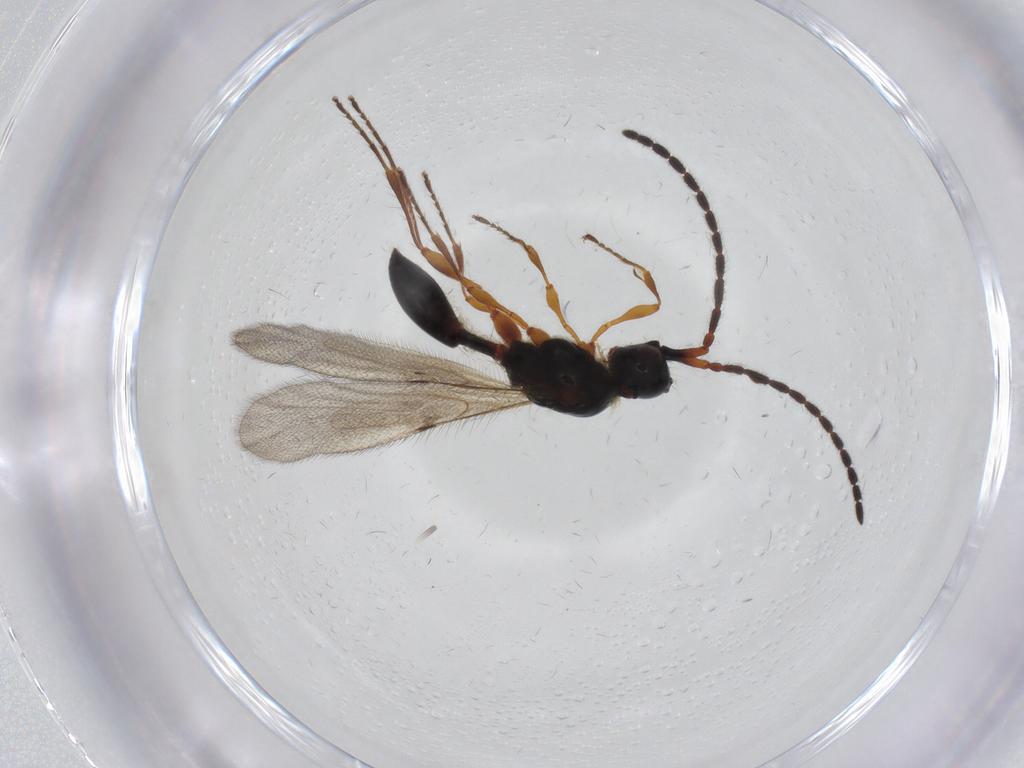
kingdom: Animalia
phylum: Arthropoda
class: Insecta
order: Hymenoptera
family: Diapriidae
